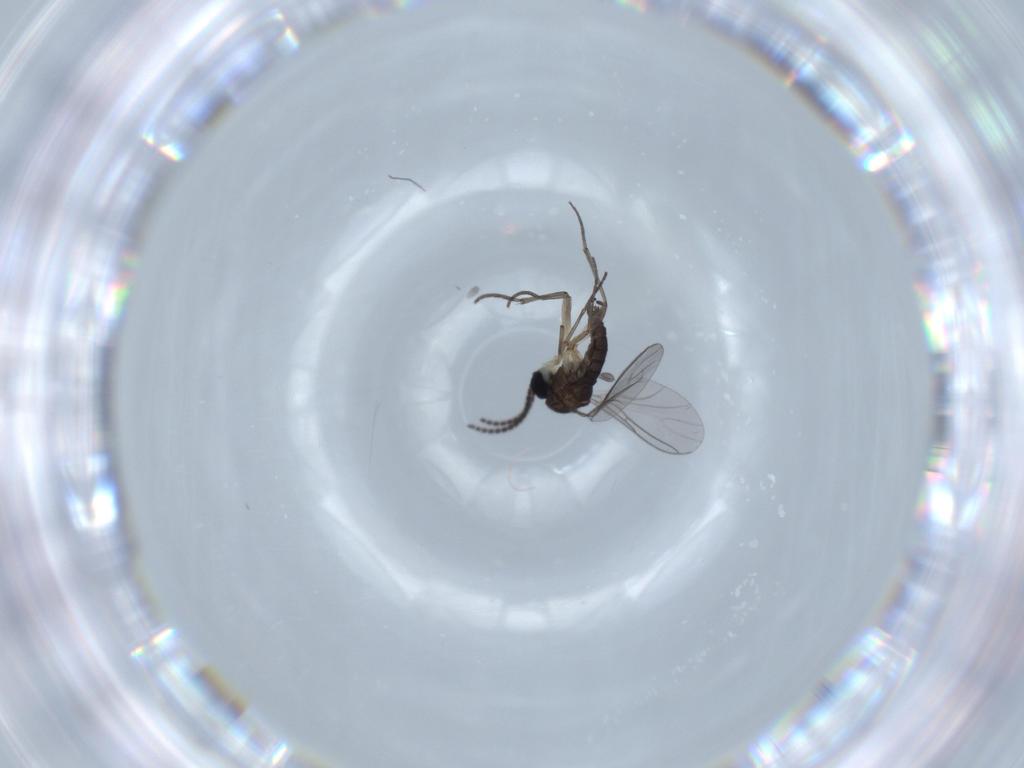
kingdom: Animalia
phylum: Arthropoda
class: Insecta
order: Diptera
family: Sciaridae
